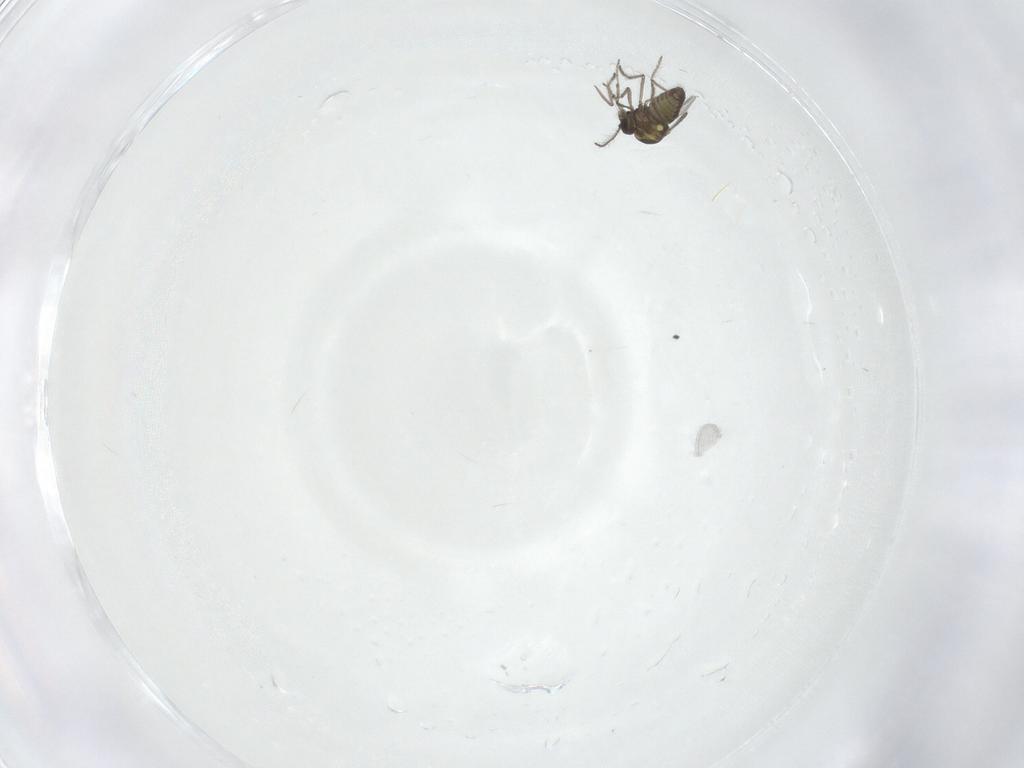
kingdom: Animalia
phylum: Arthropoda
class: Insecta
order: Diptera
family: Ceratopogonidae
